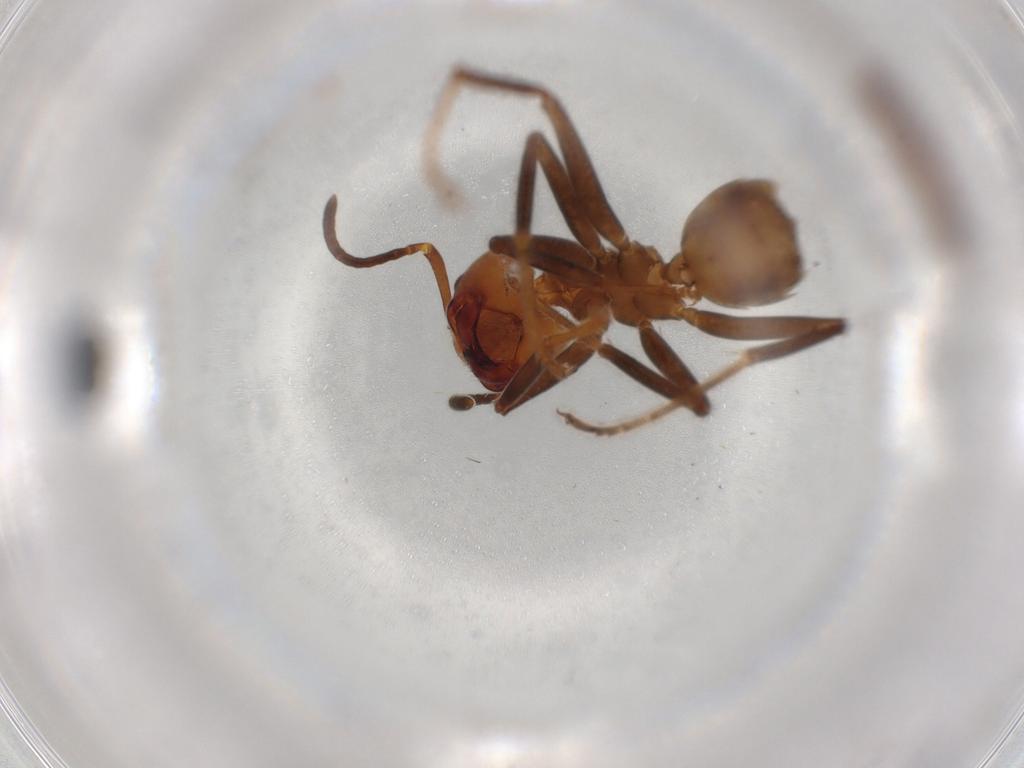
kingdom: Animalia
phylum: Arthropoda
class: Insecta
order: Hymenoptera
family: Formicidae
